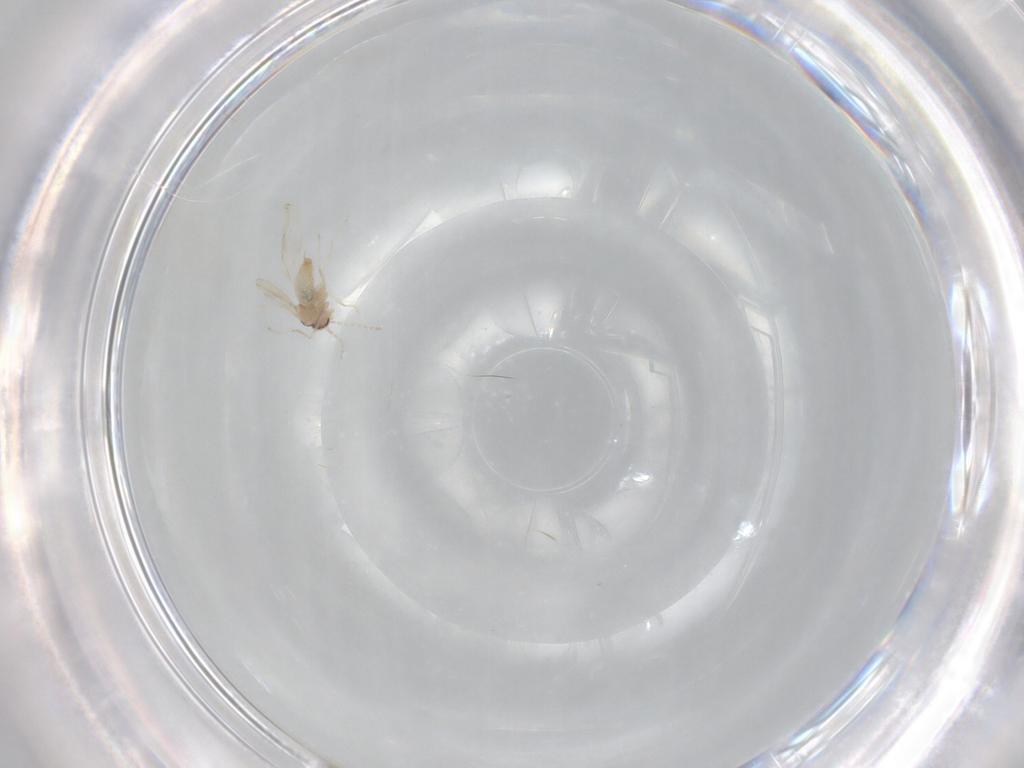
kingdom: Animalia
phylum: Arthropoda
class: Insecta
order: Diptera
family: Cecidomyiidae
